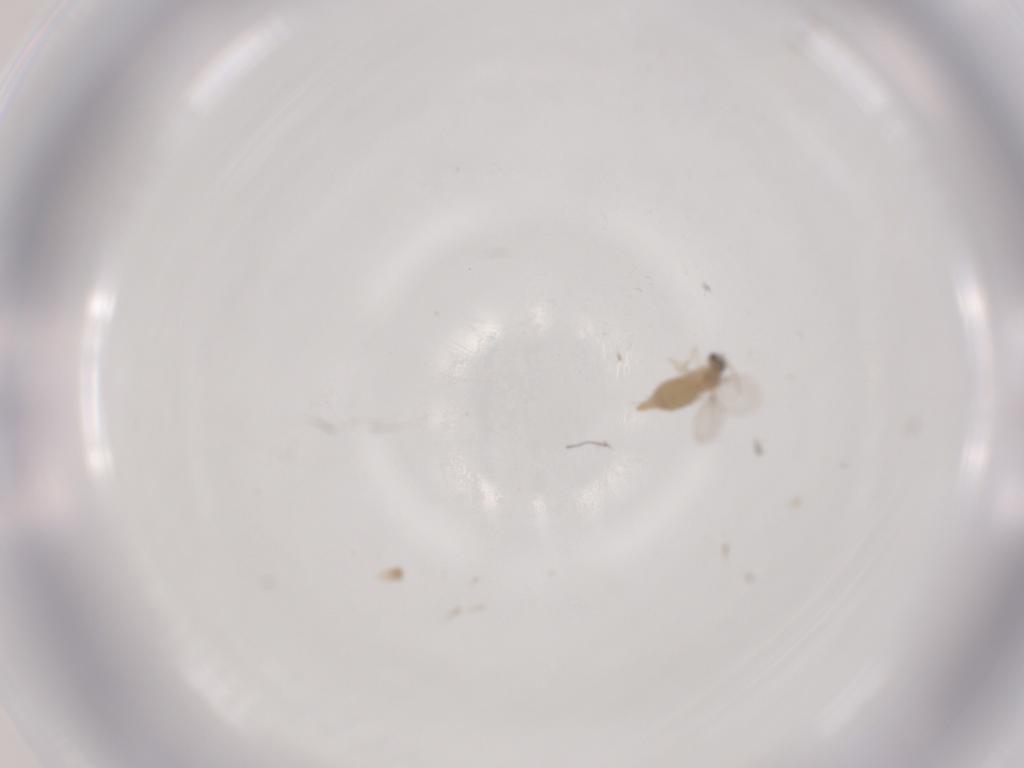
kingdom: Animalia
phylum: Arthropoda
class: Insecta
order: Diptera
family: Cecidomyiidae
